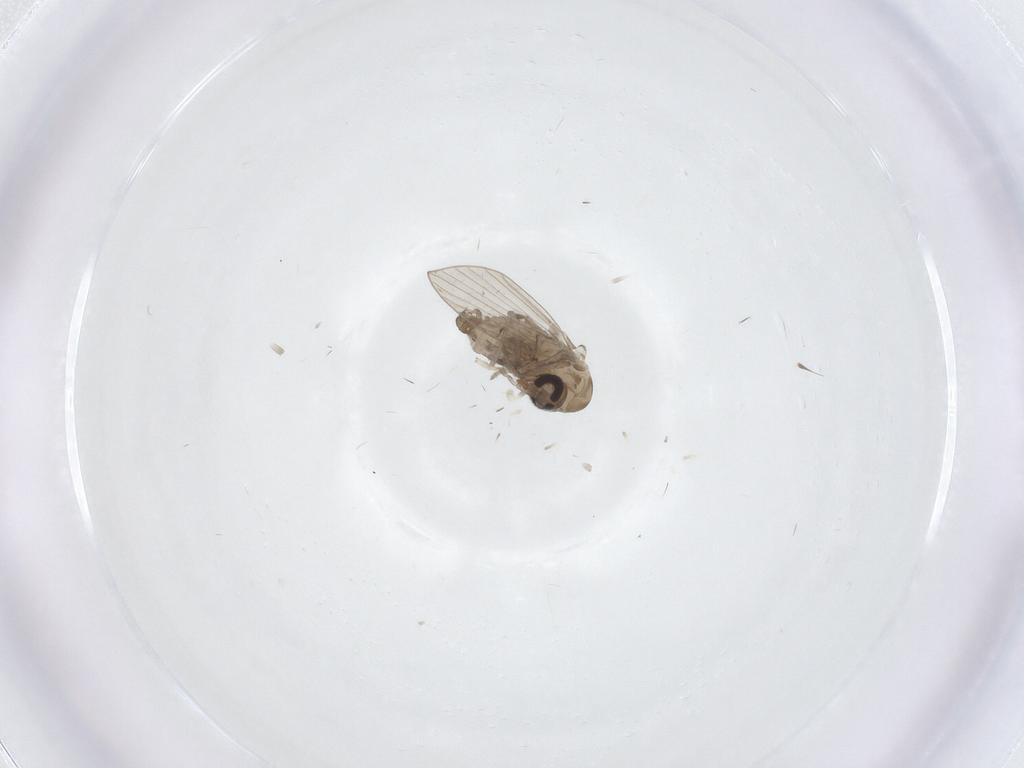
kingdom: Animalia
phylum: Arthropoda
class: Insecta
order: Diptera
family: Psychodidae
